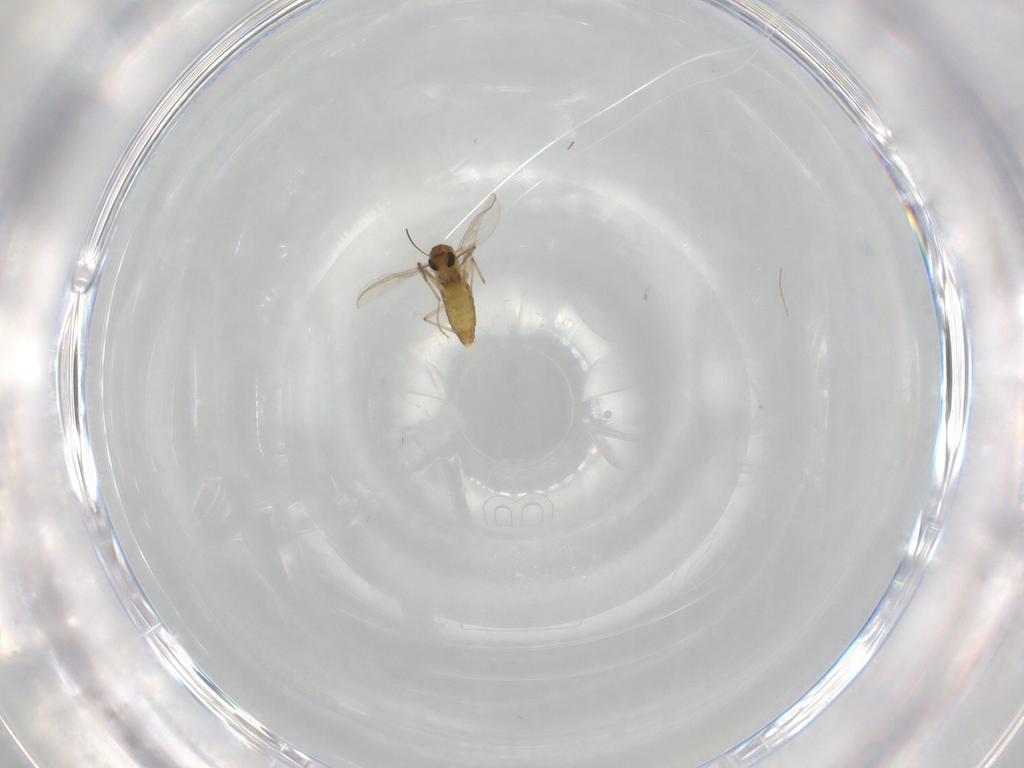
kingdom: Animalia
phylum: Arthropoda
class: Insecta
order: Diptera
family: Chironomidae
